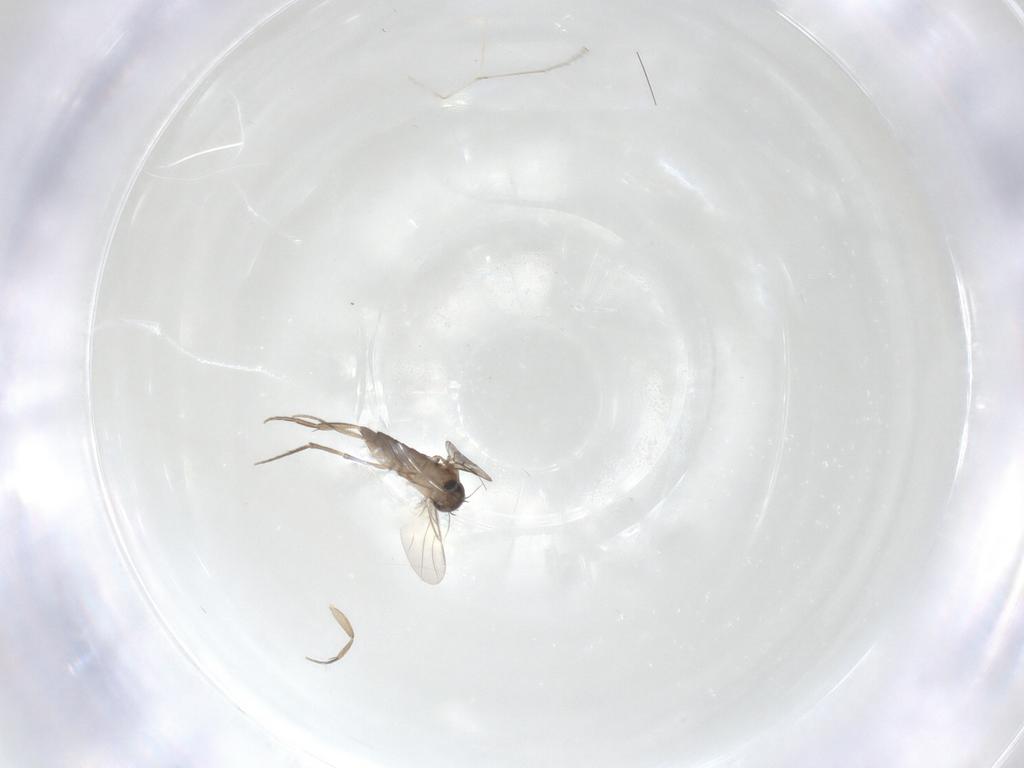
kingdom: Animalia
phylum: Arthropoda
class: Insecta
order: Diptera
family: Phoridae
